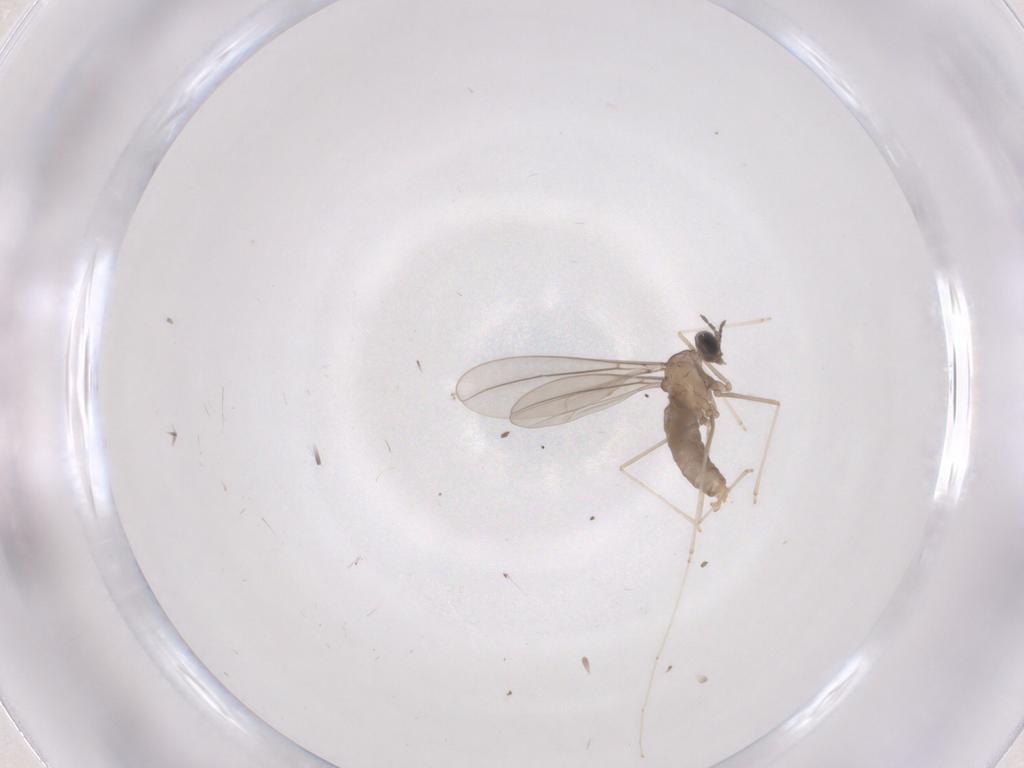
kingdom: Animalia
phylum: Arthropoda
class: Insecta
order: Diptera
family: Cecidomyiidae
